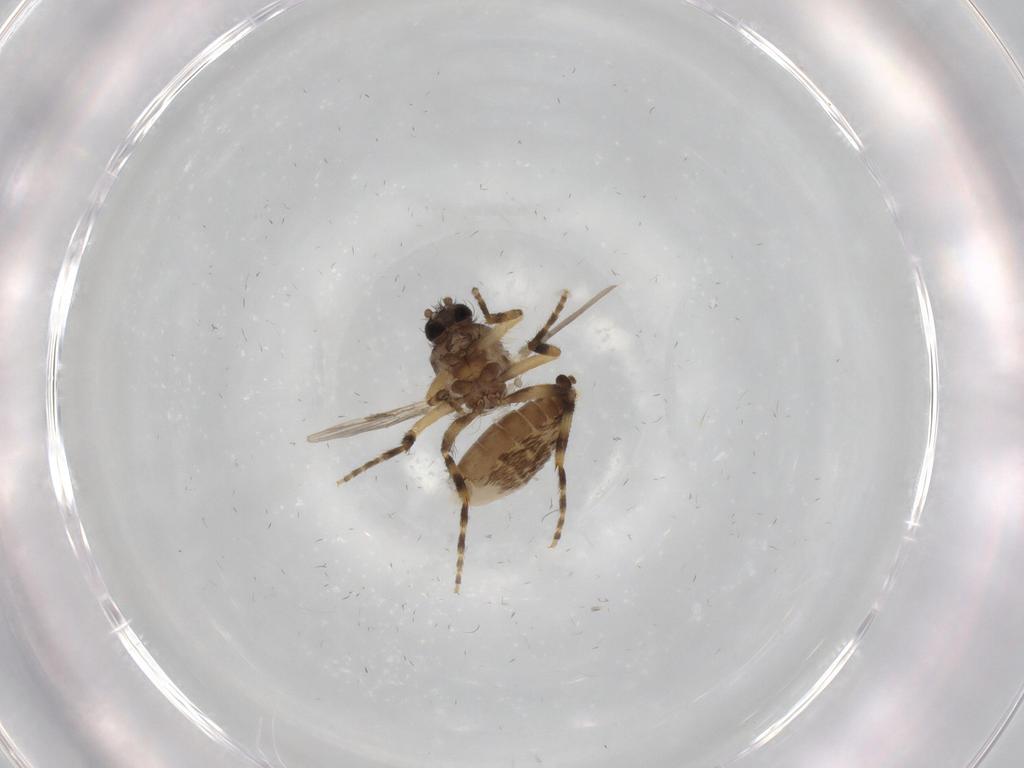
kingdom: Animalia
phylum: Arthropoda
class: Insecta
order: Diptera
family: Ceratopogonidae
